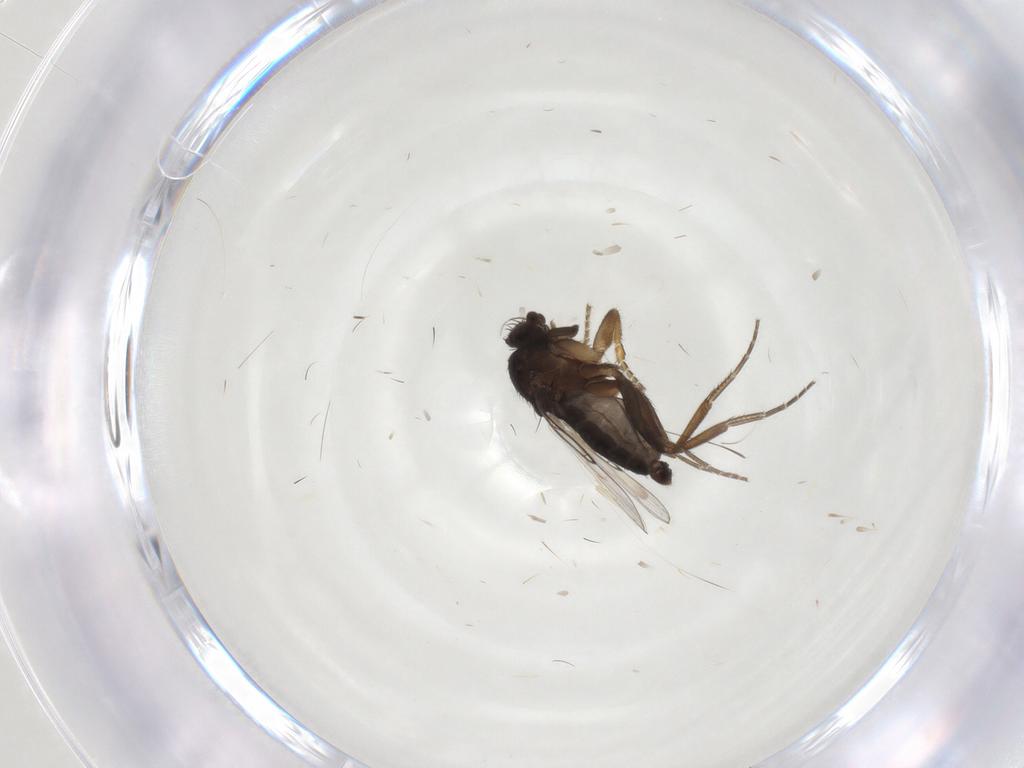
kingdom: Animalia
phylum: Arthropoda
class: Insecta
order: Diptera
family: Phoridae
